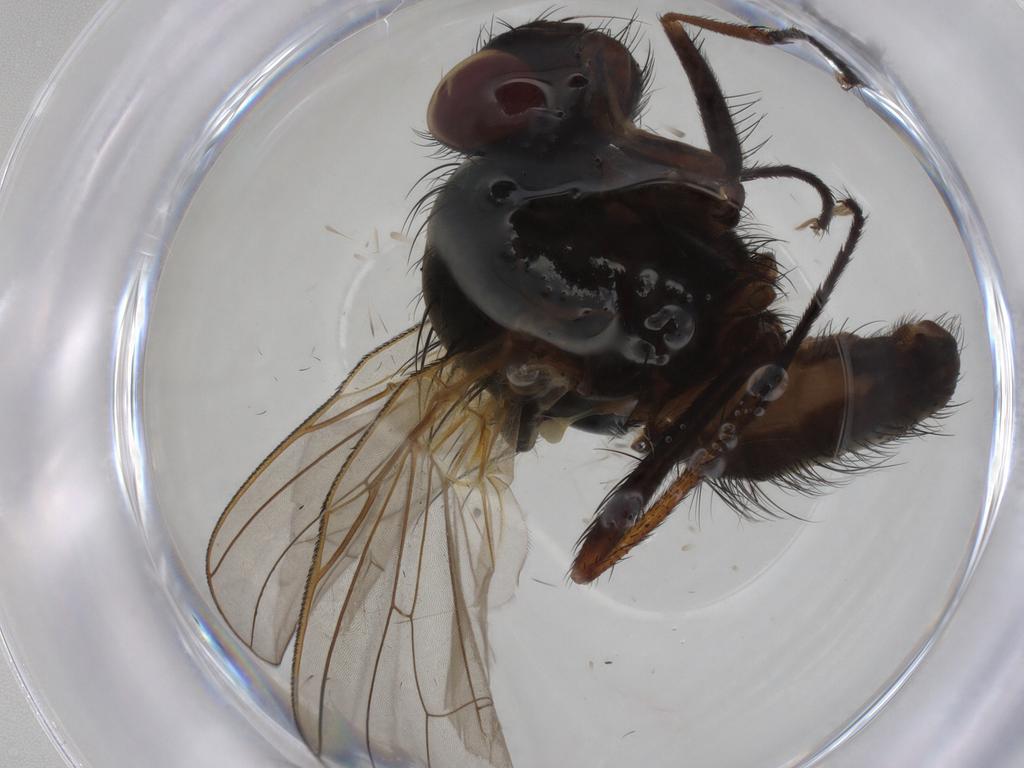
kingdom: Animalia
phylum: Arthropoda
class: Insecta
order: Diptera
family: Anthomyiidae
